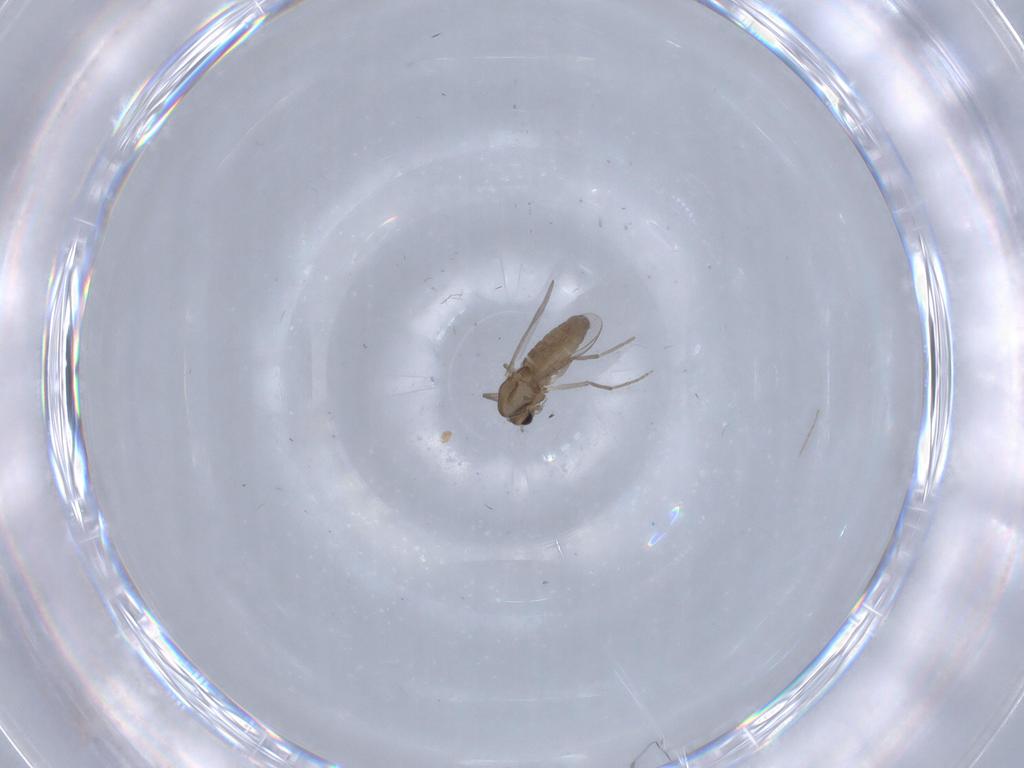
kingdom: Animalia
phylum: Arthropoda
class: Insecta
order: Diptera
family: Chironomidae
